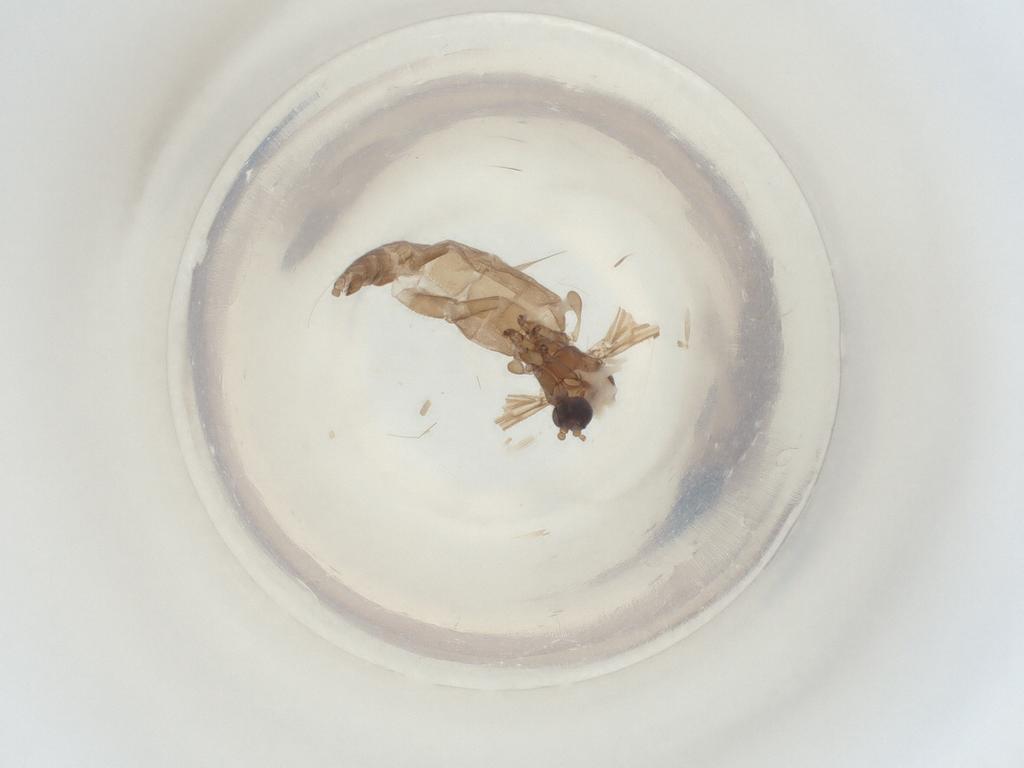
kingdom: Animalia
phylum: Arthropoda
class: Insecta
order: Diptera
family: Sciaridae
